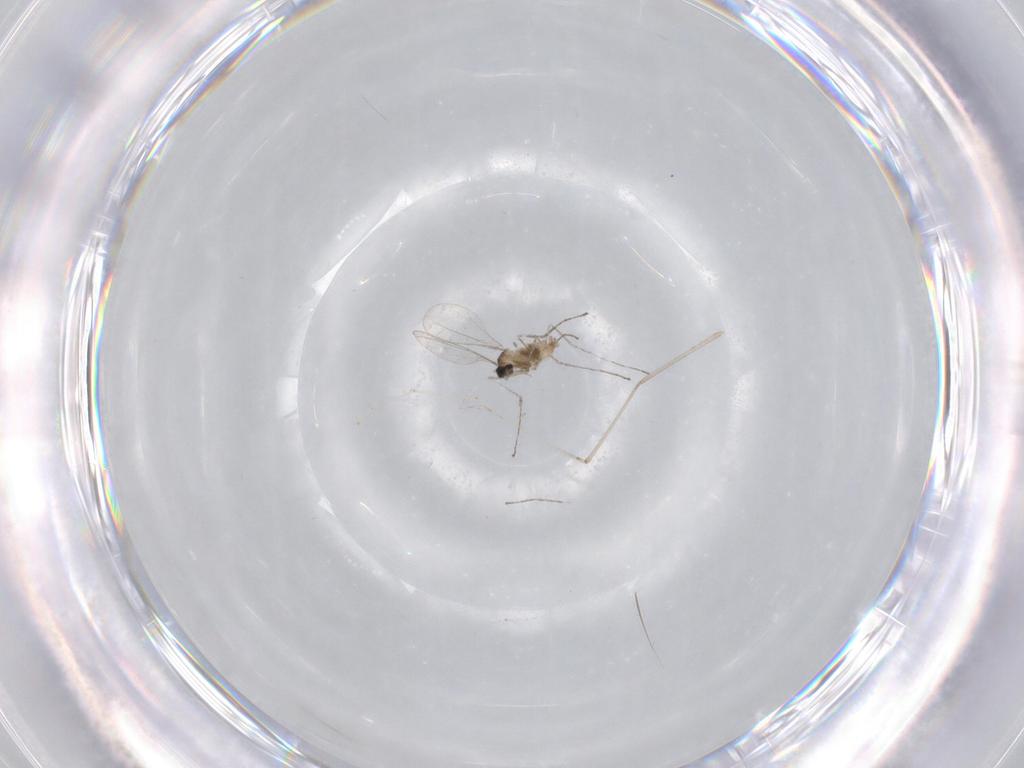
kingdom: Animalia
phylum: Arthropoda
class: Insecta
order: Diptera
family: Cecidomyiidae
